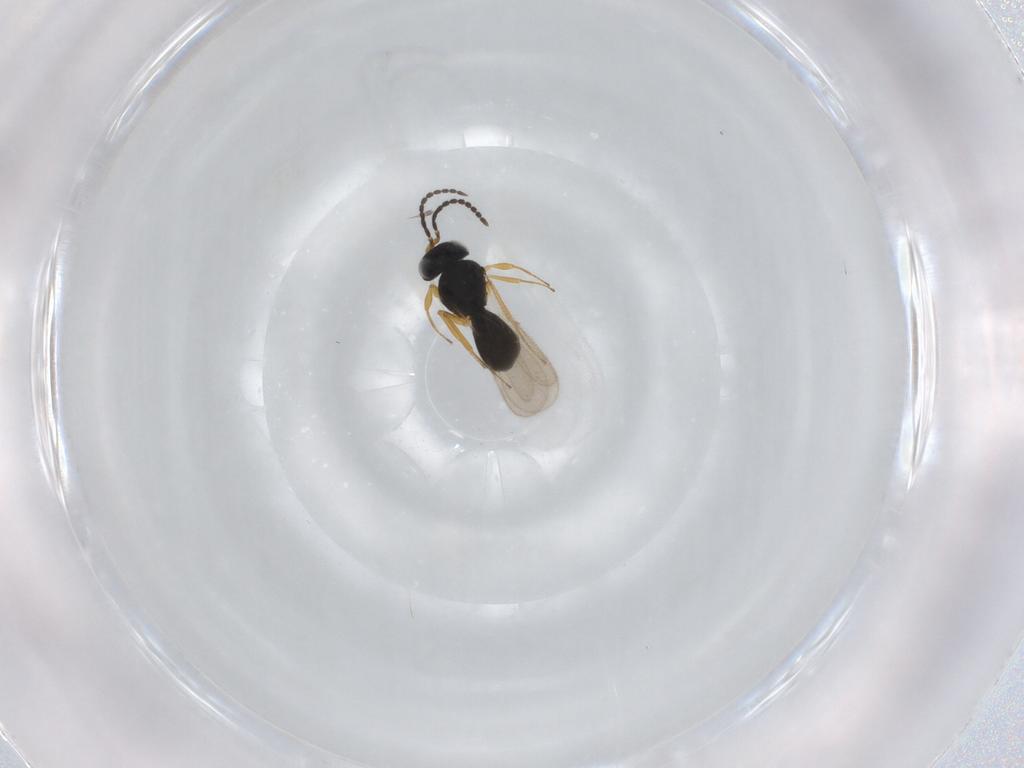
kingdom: Animalia
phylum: Arthropoda
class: Insecta
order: Hymenoptera
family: Scelionidae
